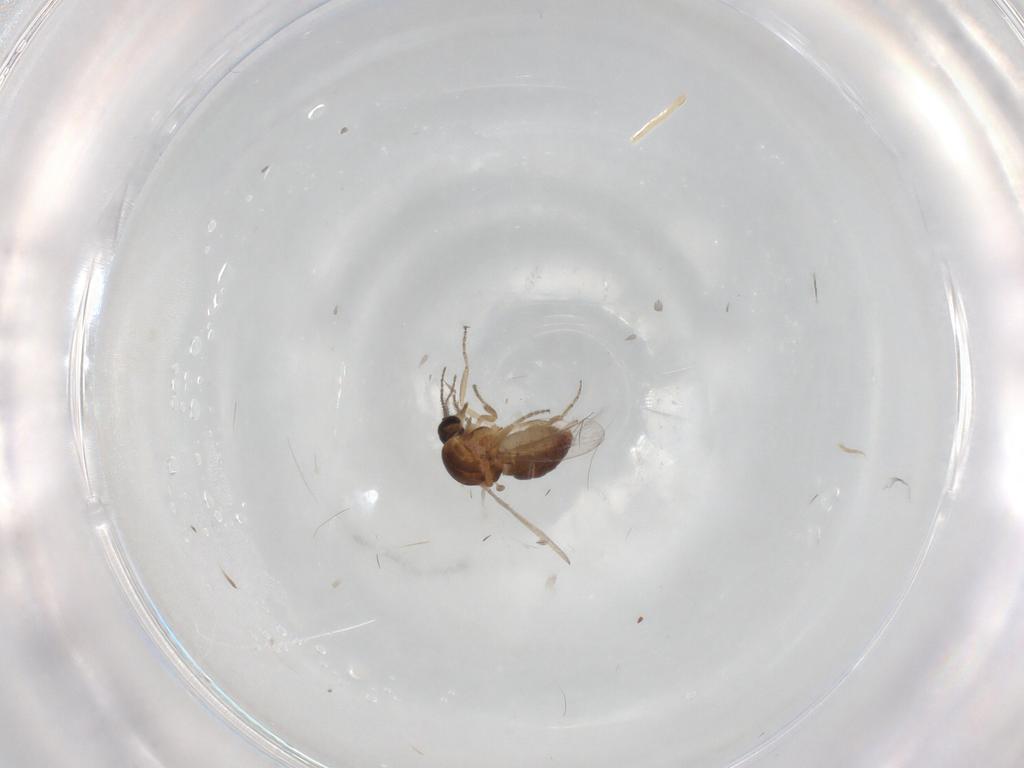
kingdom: Animalia
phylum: Arthropoda
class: Insecta
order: Diptera
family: Ceratopogonidae
